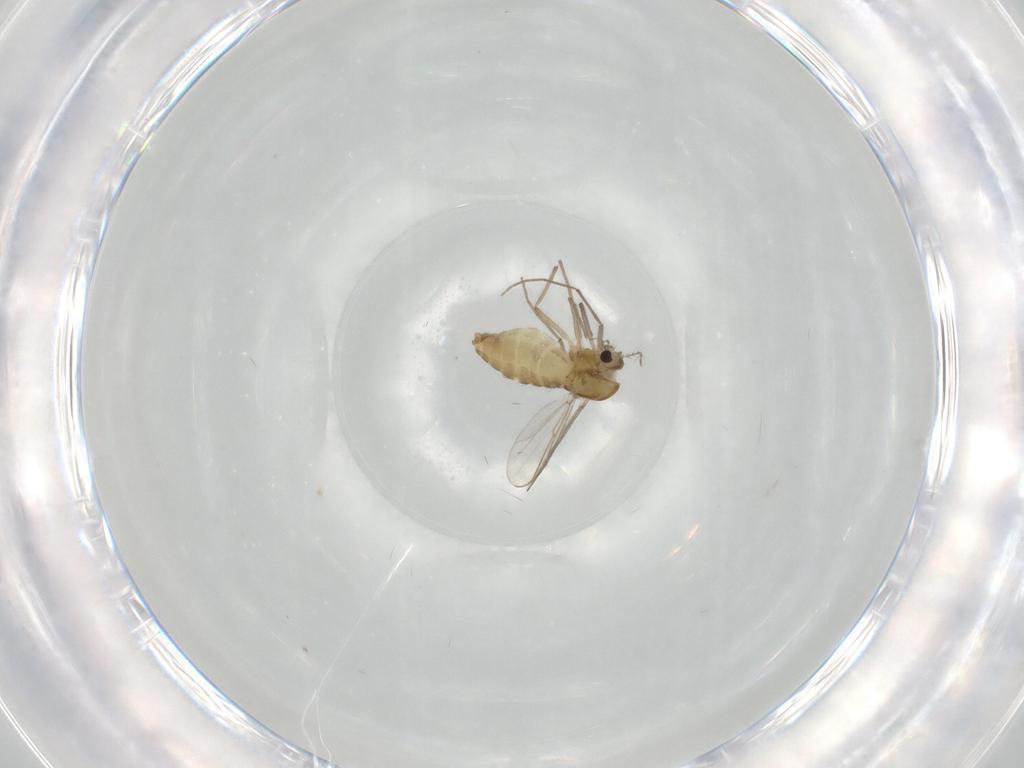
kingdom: Animalia
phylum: Arthropoda
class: Insecta
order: Diptera
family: Chironomidae
